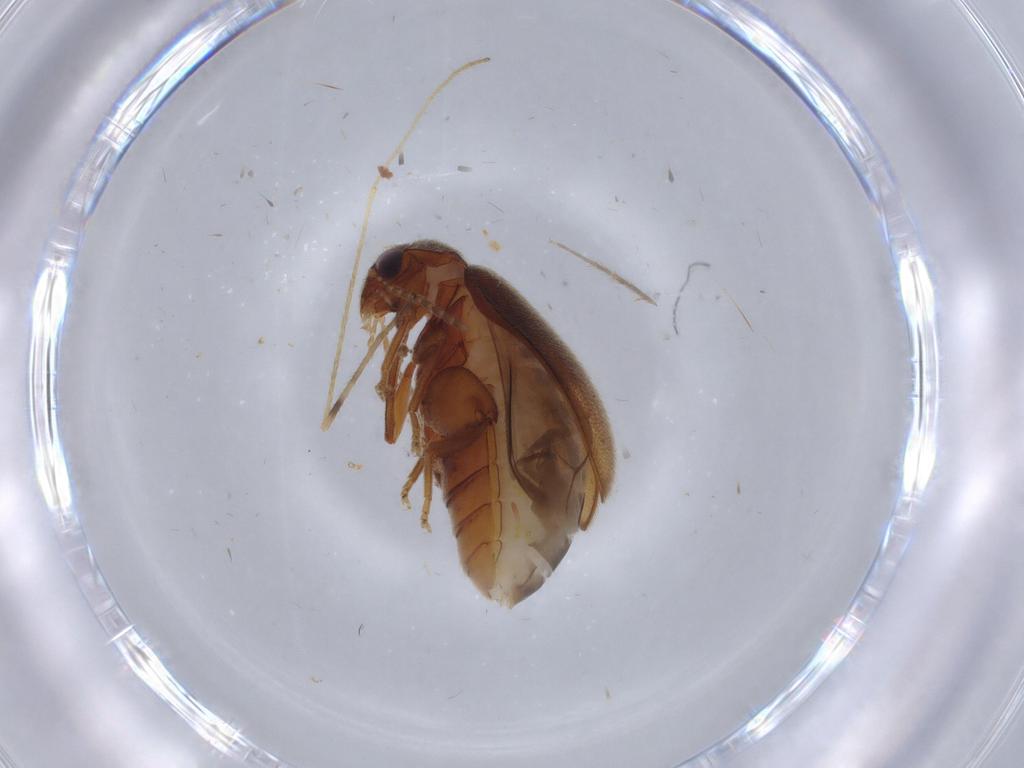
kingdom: Animalia
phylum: Arthropoda
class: Insecta
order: Coleoptera
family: Scirtidae
